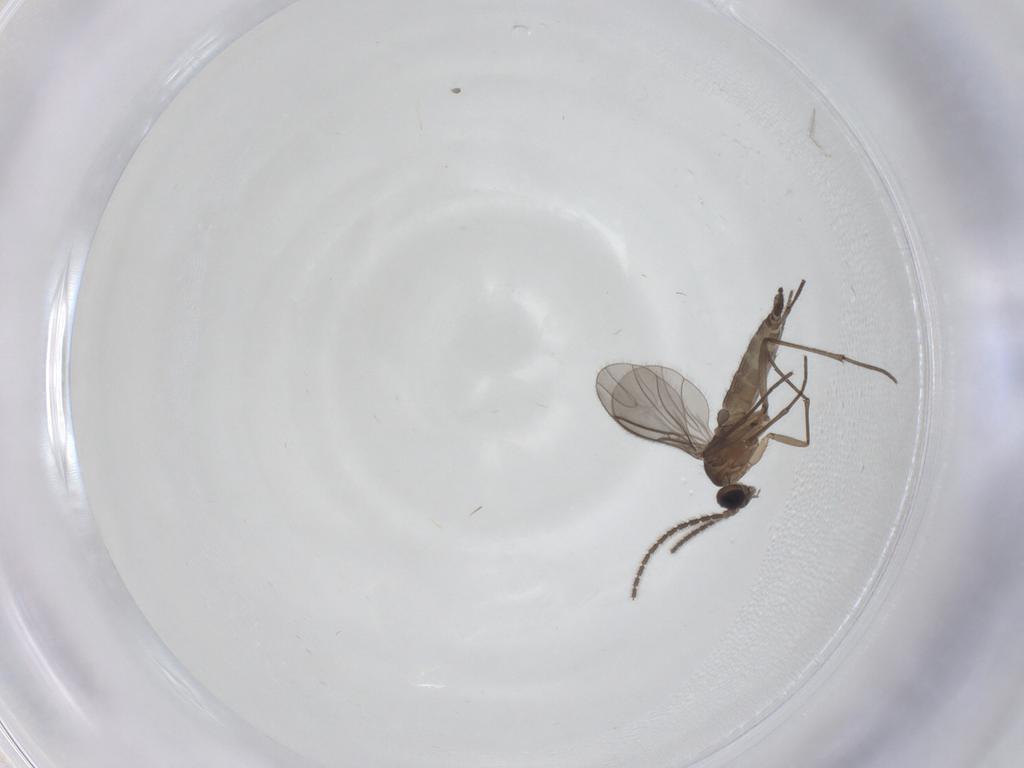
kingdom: Animalia
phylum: Arthropoda
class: Insecta
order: Diptera
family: Sciaridae
